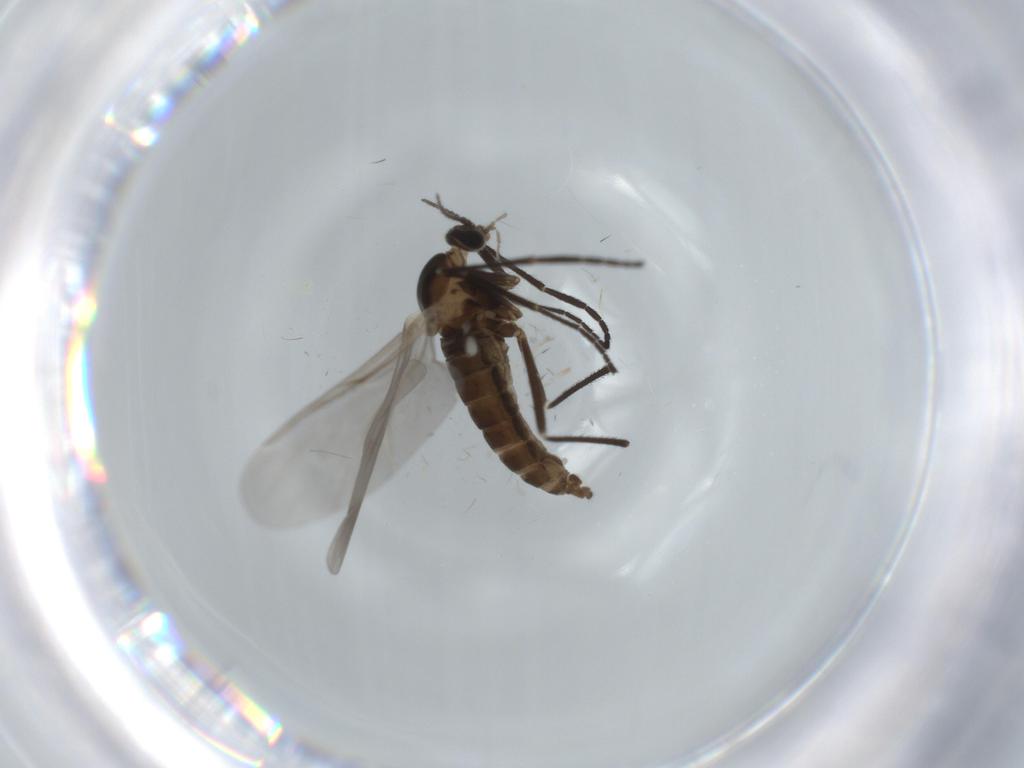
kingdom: Animalia
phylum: Arthropoda
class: Insecta
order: Diptera
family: Cecidomyiidae
